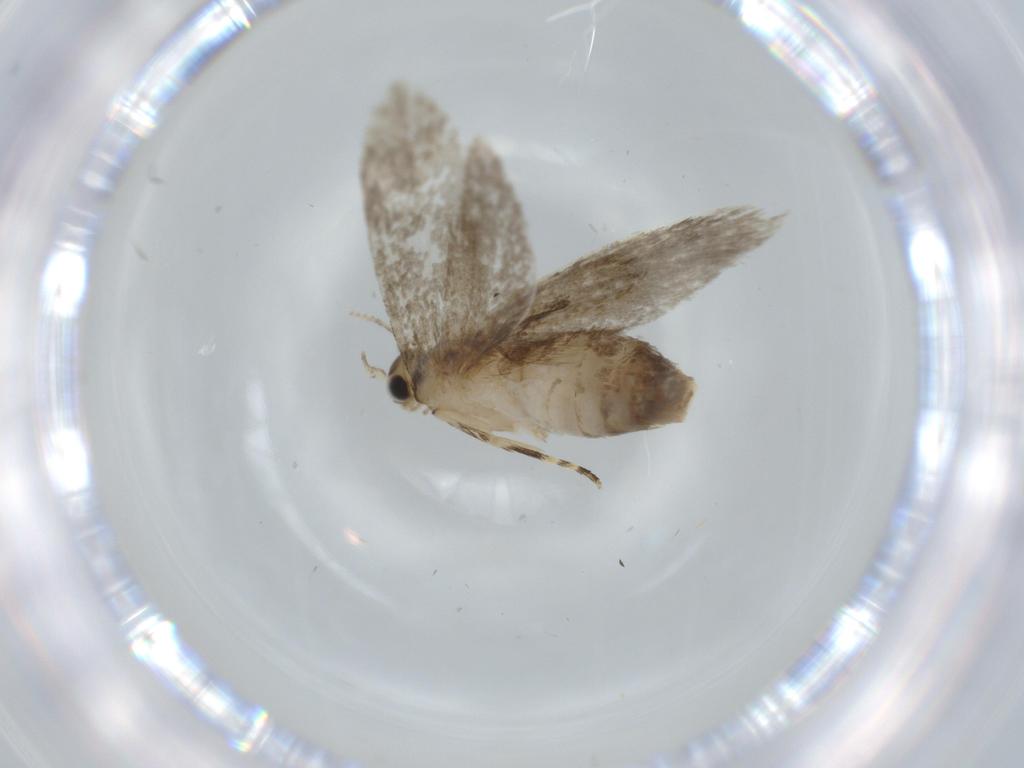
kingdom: Animalia
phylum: Arthropoda
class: Insecta
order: Lepidoptera
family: Tineidae
